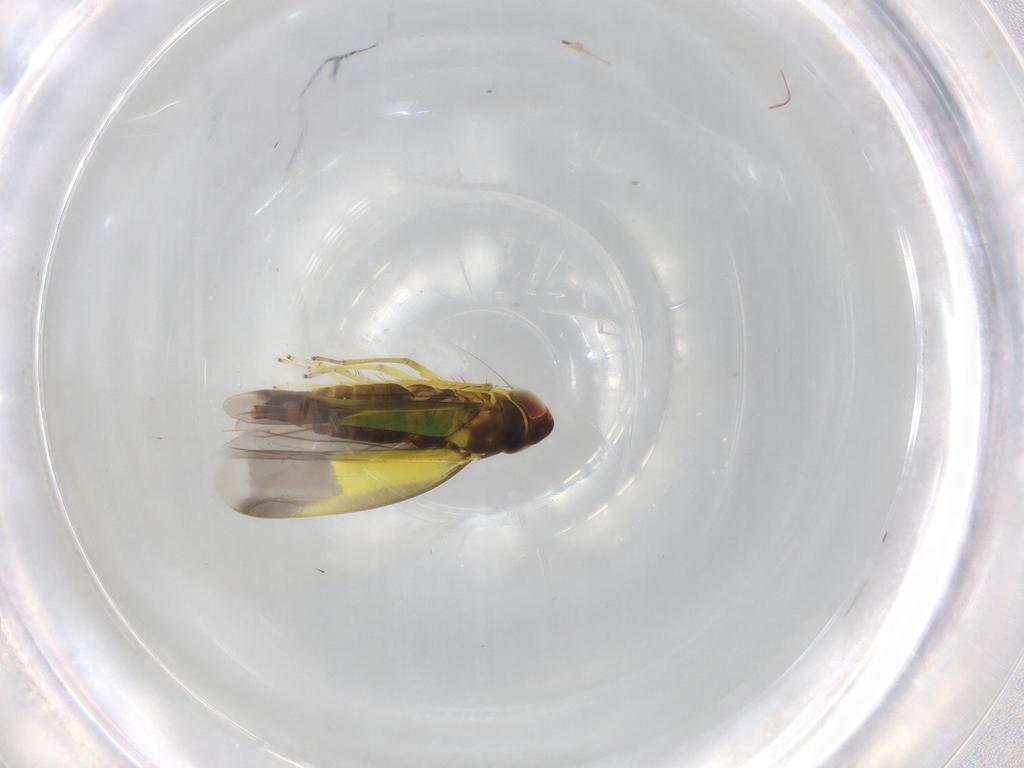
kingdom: Animalia
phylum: Arthropoda
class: Insecta
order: Hemiptera
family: Cicadellidae
